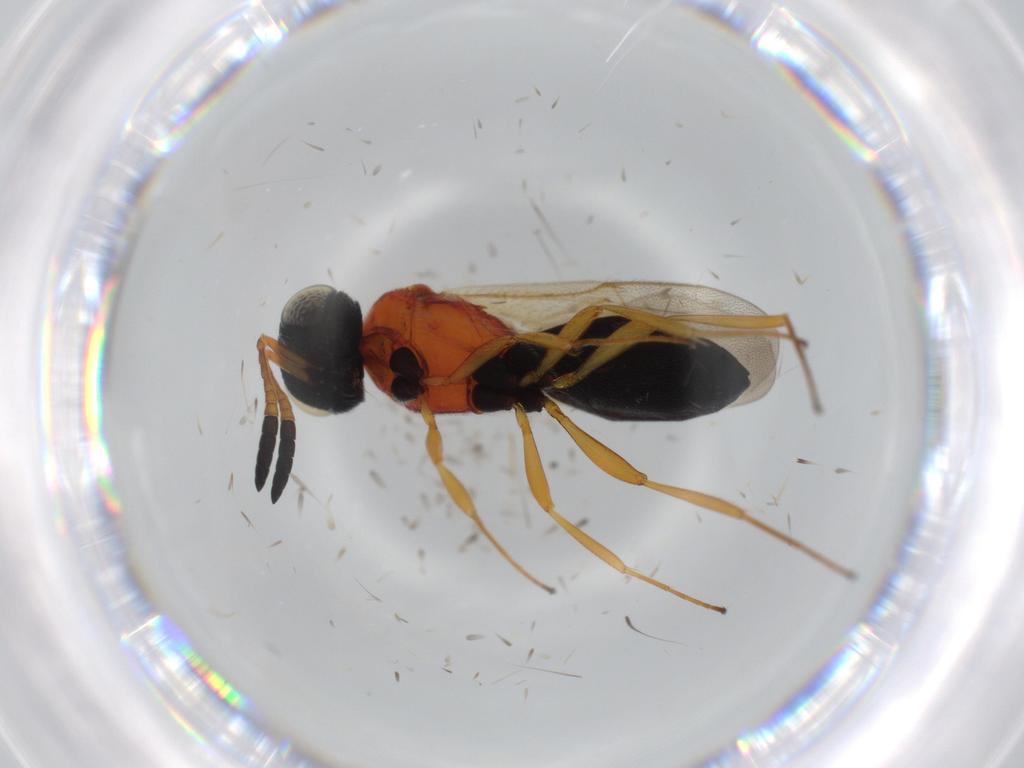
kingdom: Animalia
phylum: Arthropoda
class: Insecta
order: Hymenoptera
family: Scelionidae
